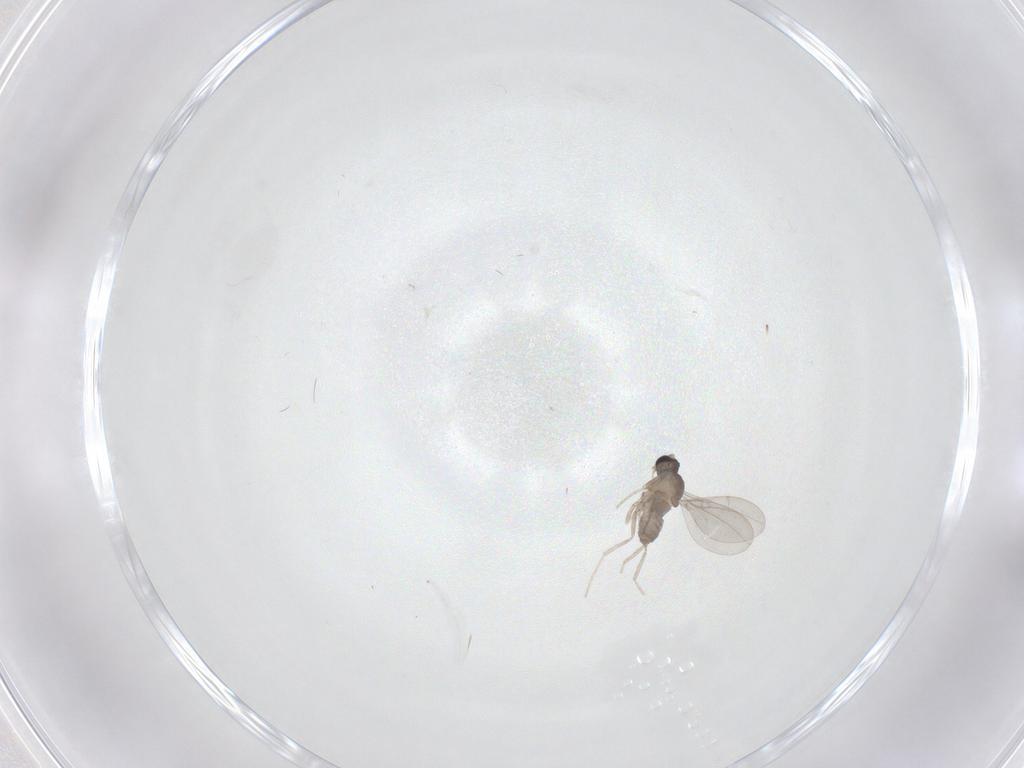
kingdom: Animalia
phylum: Arthropoda
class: Insecta
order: Diptera
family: Cecidomyiidae
